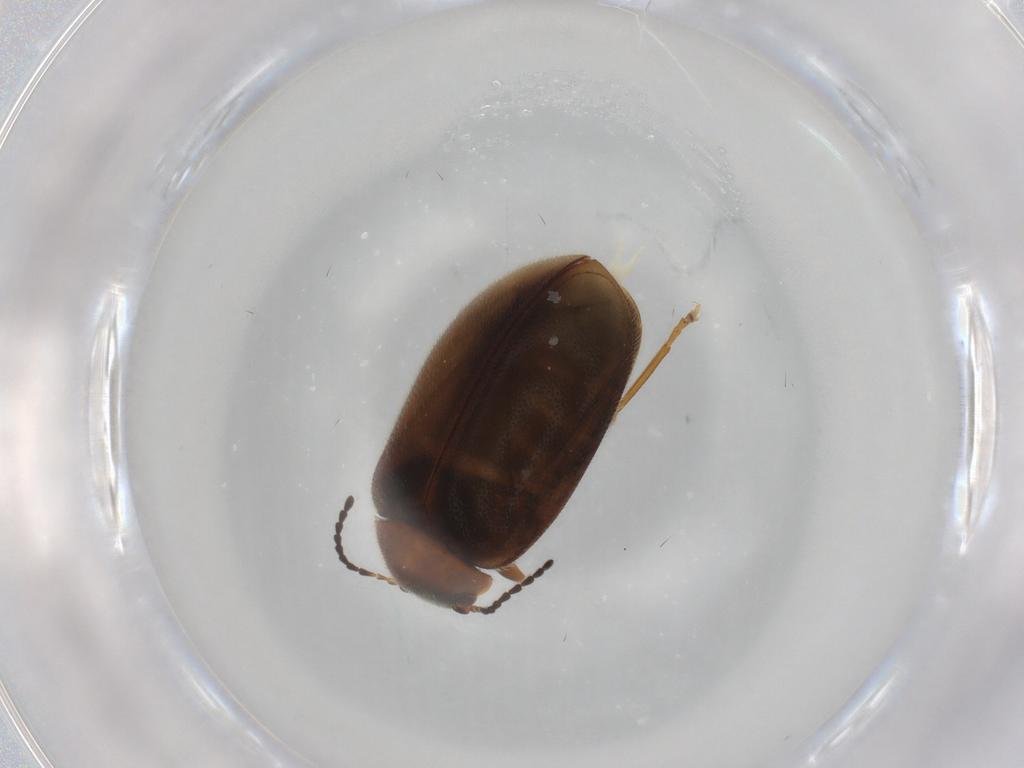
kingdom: Animalia
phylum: Arthropoda
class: Insecta
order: Coleoptera
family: Scirtidae
